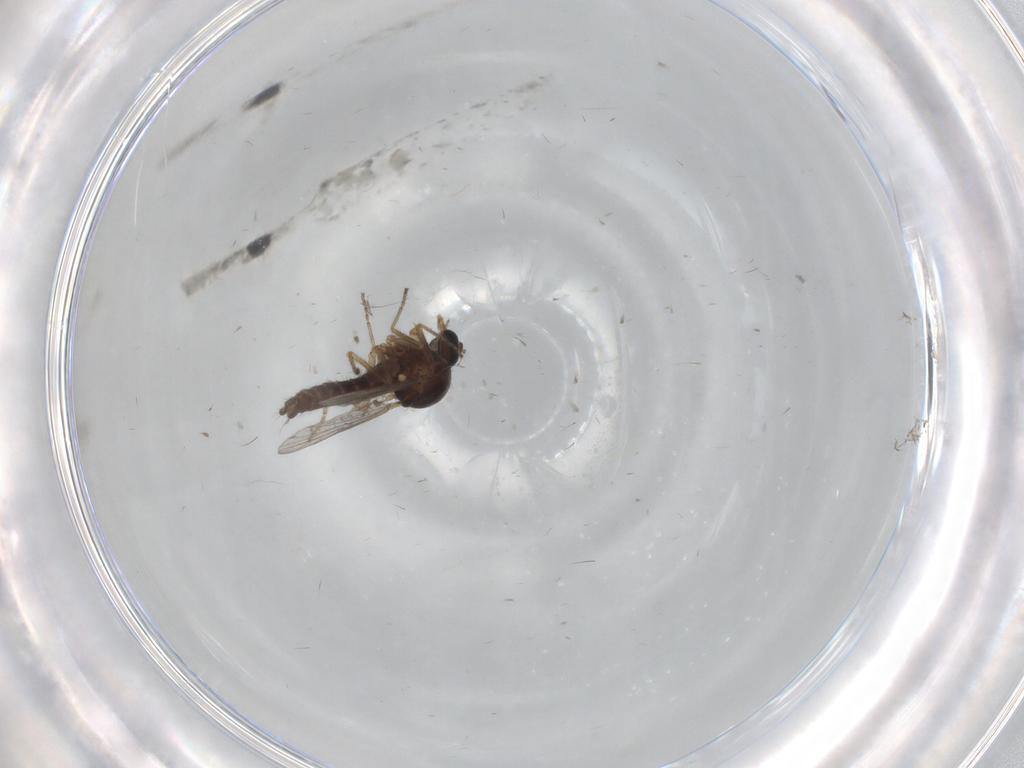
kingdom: Animalia
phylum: Arthropoda
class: Insecta
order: Diptera
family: Ceratopogonidae
